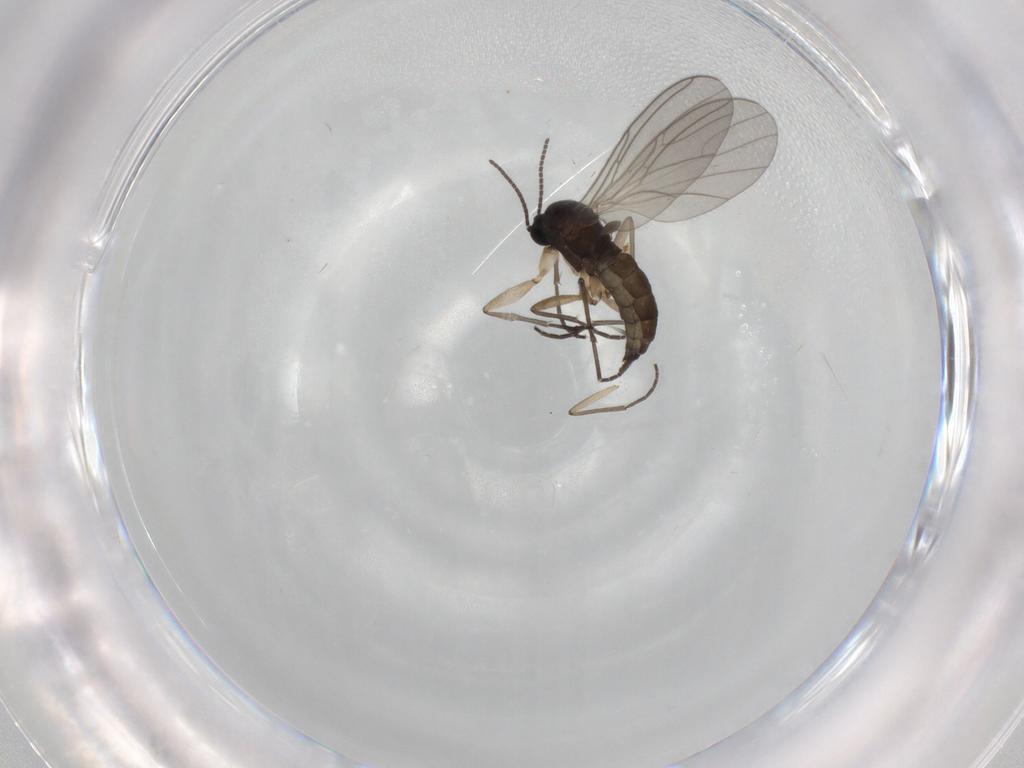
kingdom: Animalia
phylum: Arthropoda
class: Insecta
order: Diptera
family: Sciaridae
